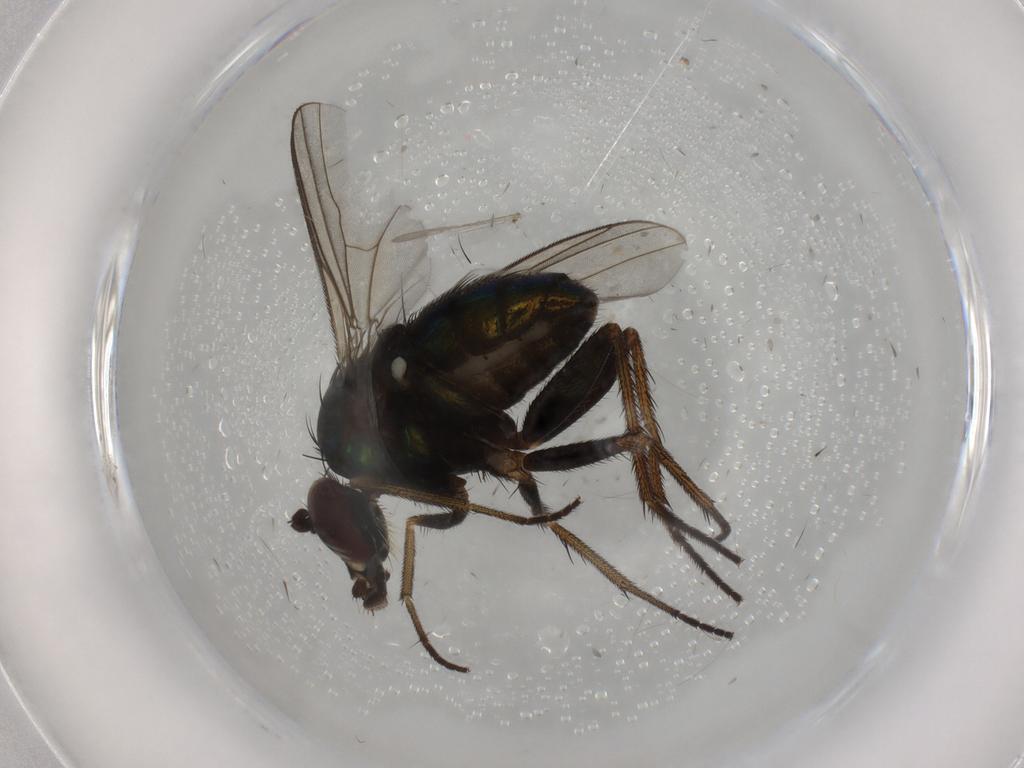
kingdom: Animalia
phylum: Arthropoda
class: Insecta
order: Diptera
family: Dolichopodidae
